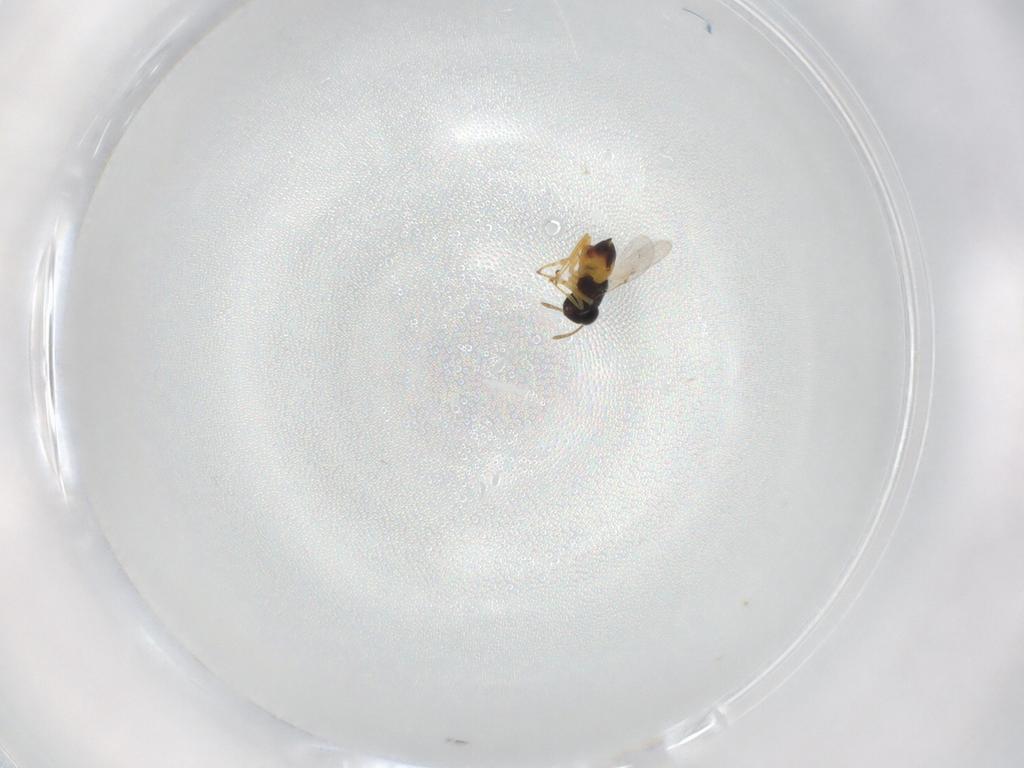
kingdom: Animalia
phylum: Arthropoda
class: Insecta
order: Hymenoptera
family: Encyrtidae
